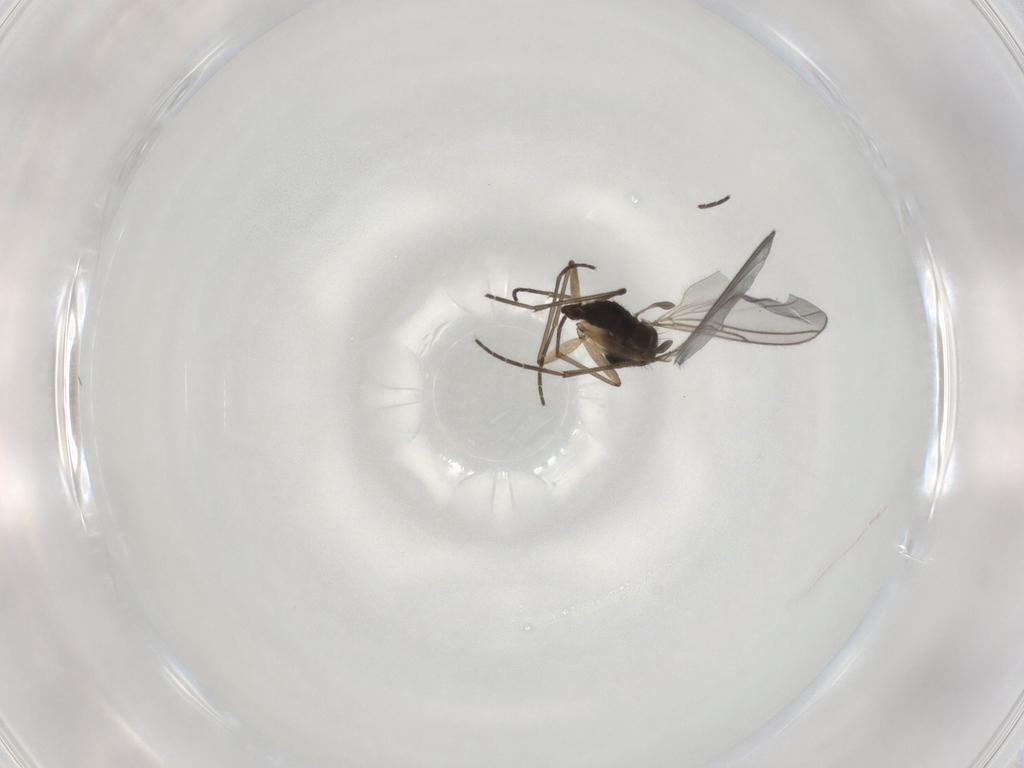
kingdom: Animalia
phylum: Arthropoda
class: Insecta
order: Diptera
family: Sciaridae
